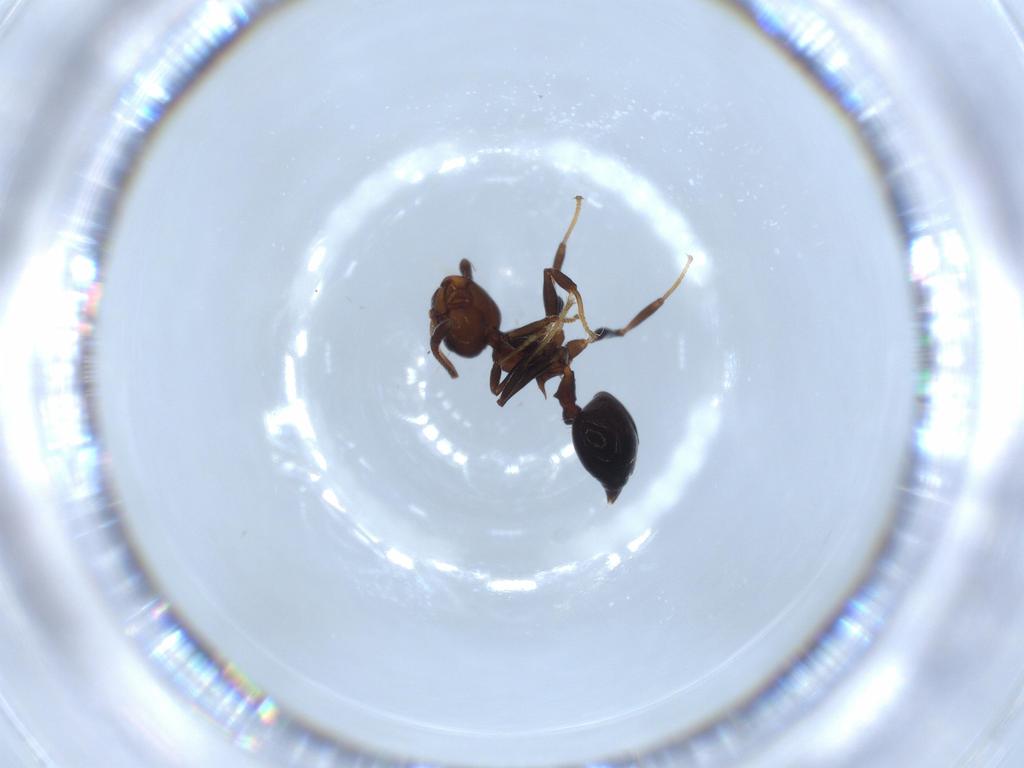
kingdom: Animalia
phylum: Arthropoda
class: Insecta
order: Hymenoptera
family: Formicidae
